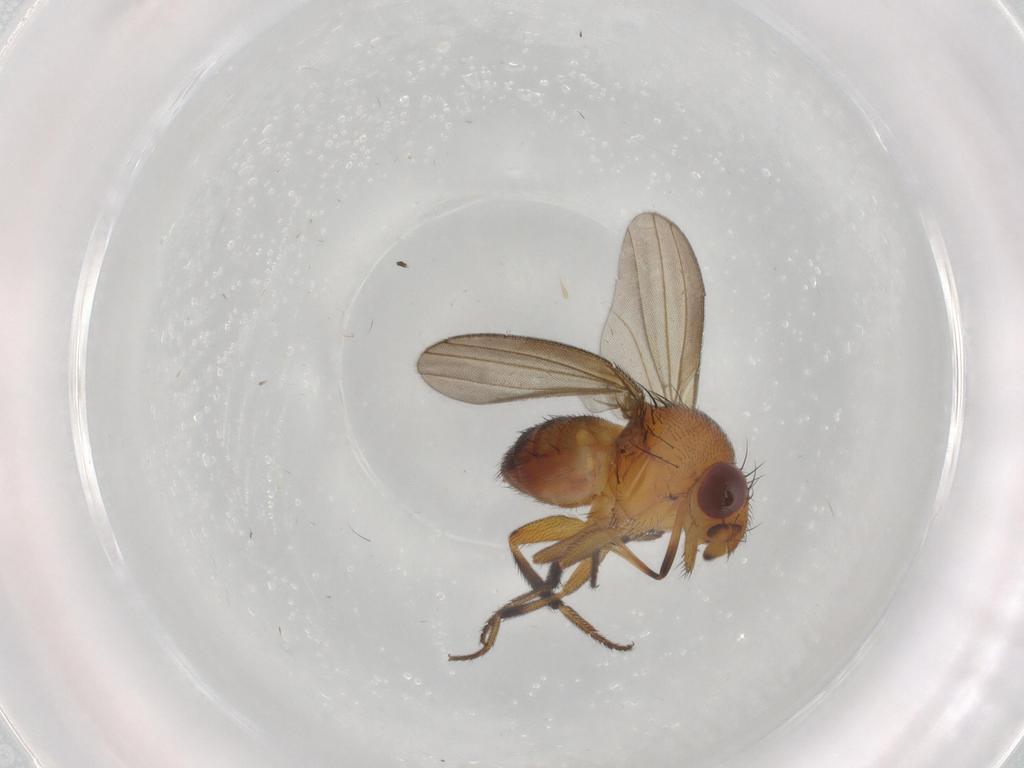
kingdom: Animalia
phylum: Arthropoda
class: Insecta
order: Diptera
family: Milichiidae
